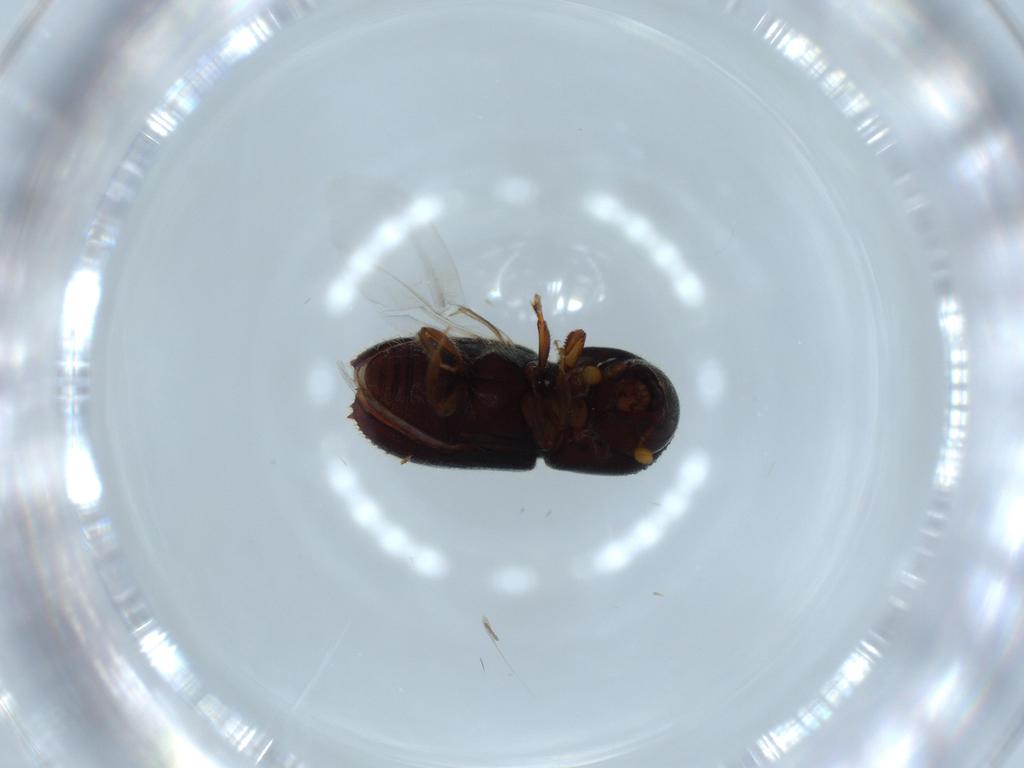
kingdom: Animalia
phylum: Arthropoda
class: Insecta
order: Coleoptera
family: Curculionidae
